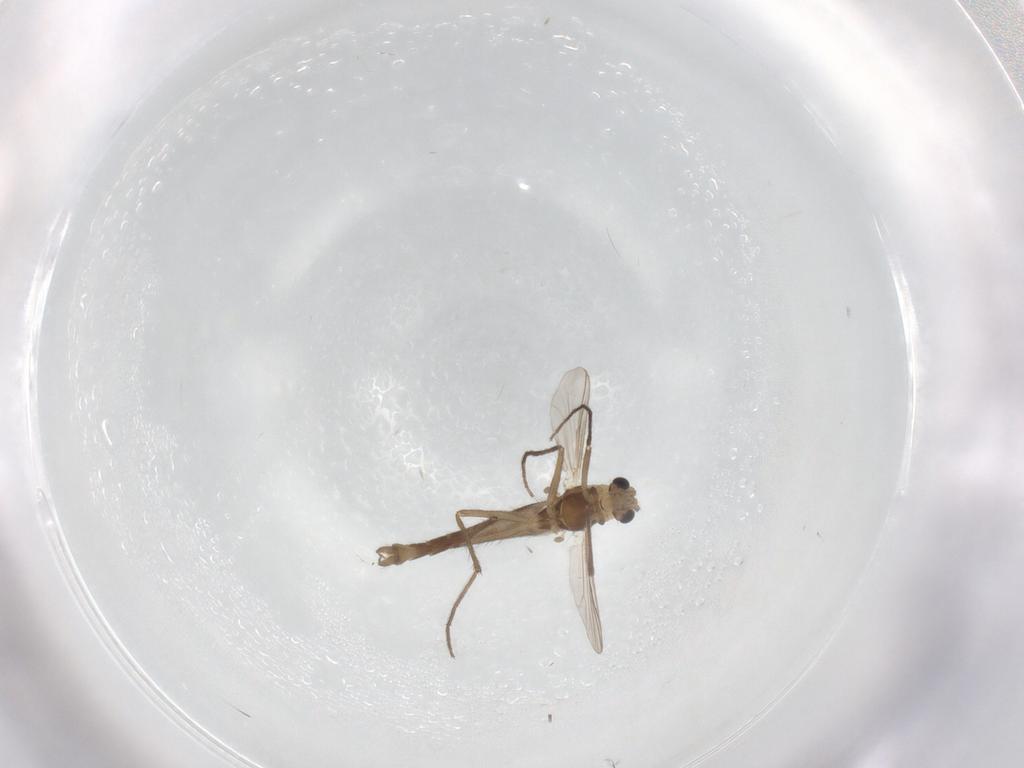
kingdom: Animalia
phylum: Arthropoda
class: Insecta
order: Diptera
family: Chironomidae
